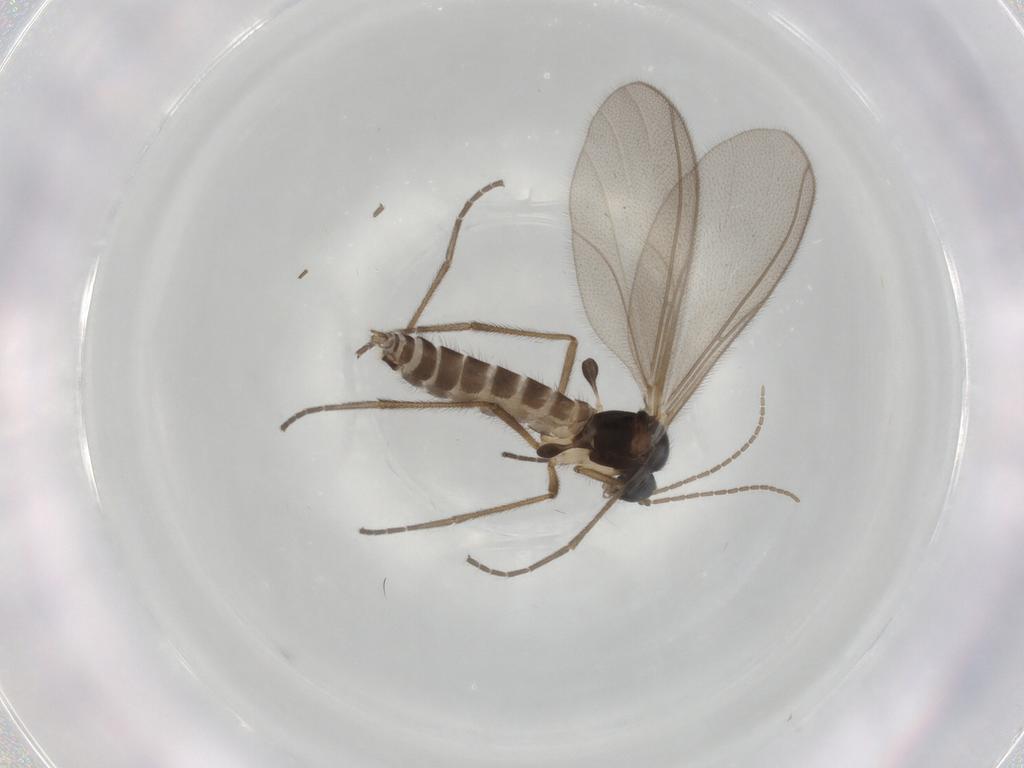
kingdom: Animalia
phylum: Arthropoda
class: Insecta
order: Diptera
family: Mycetophilidae
